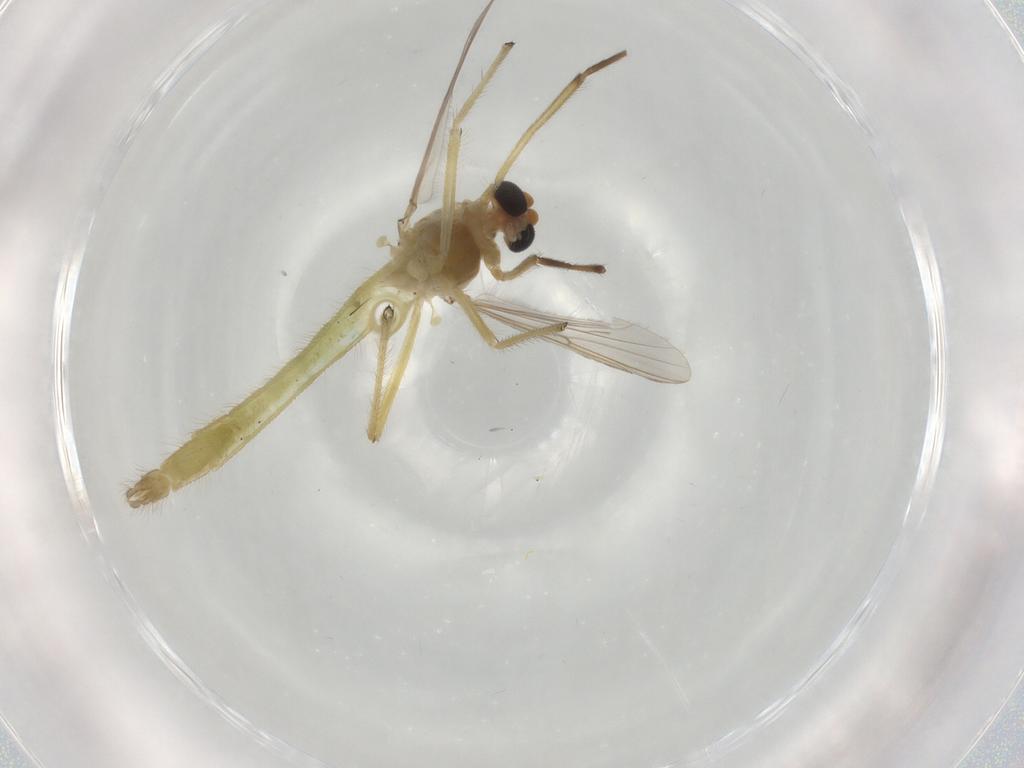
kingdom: Animalia
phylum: Arthropoda
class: Insecta
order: Diptera
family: Chironomidae
